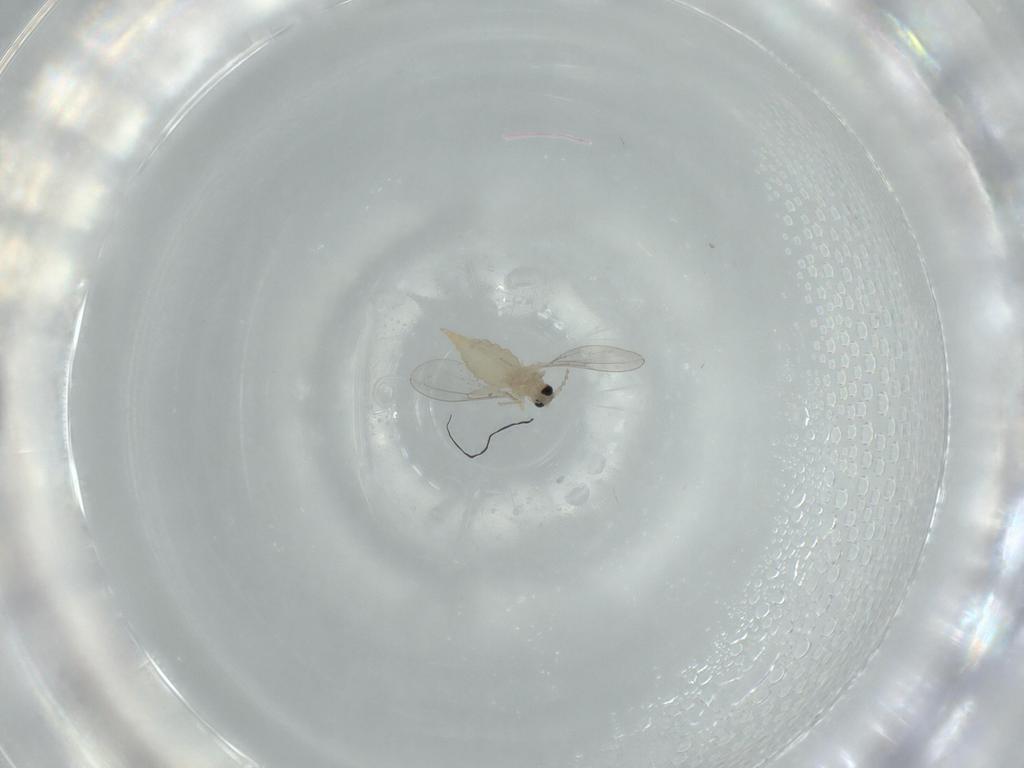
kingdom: Animalia
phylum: Arthropoda
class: Insecta
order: Diptera
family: Cecidomyiidae
